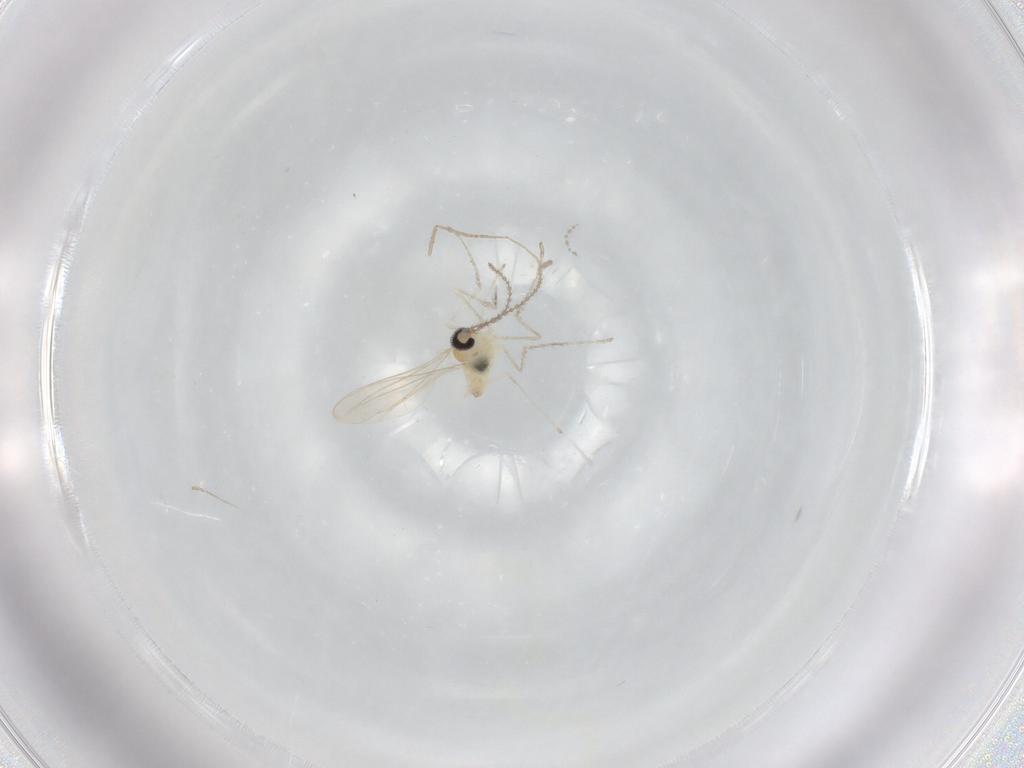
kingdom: Animalia
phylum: Arthropoda
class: Insecta
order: Diptera
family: Cecidomyiidae
